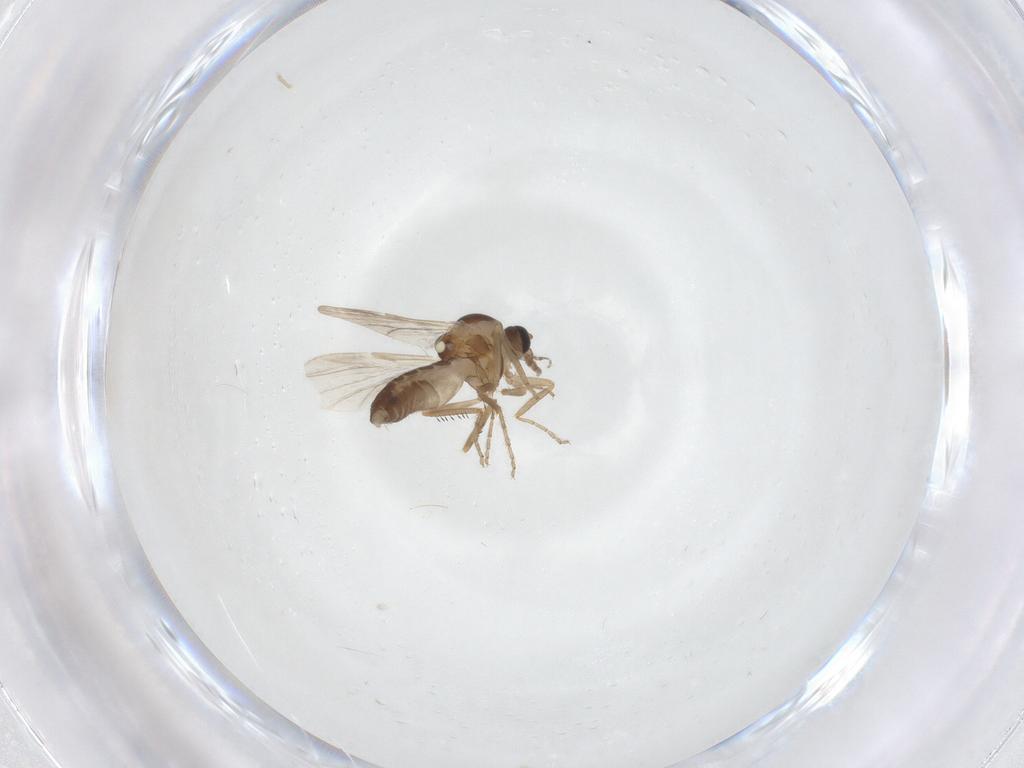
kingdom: Animalia
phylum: Arthropoda
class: Insecta
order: Diptera
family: Ceratopogonidae
